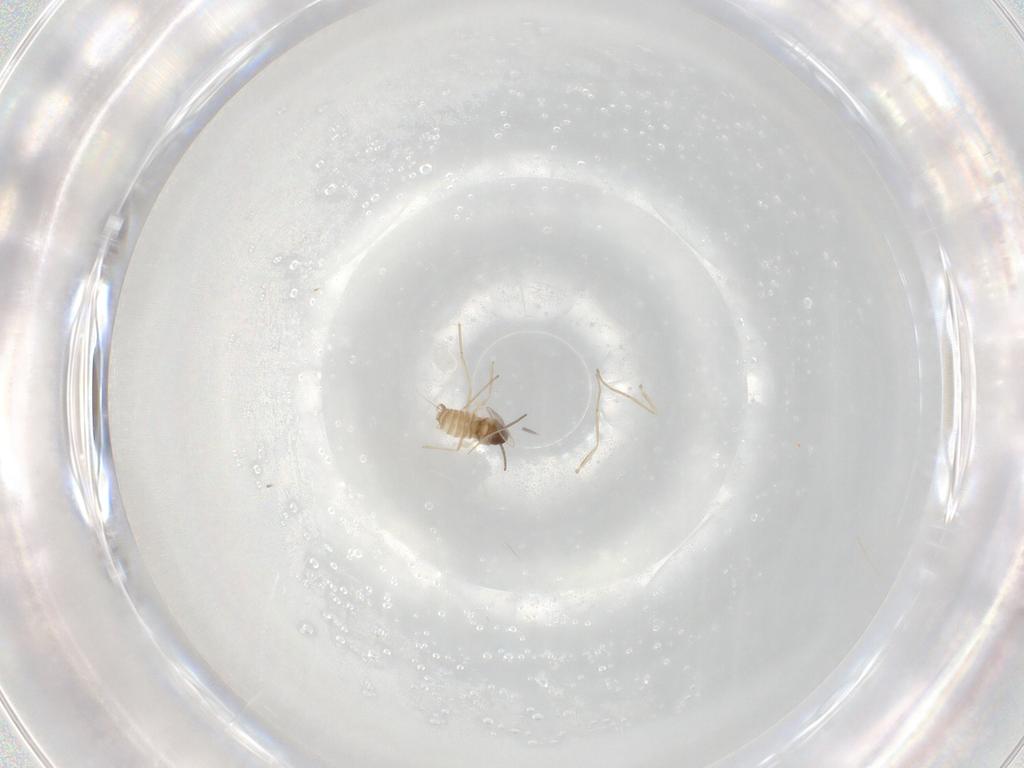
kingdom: Animalia
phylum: Arthropoda
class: Insecta
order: Diptera
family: Cecidomyiidae
